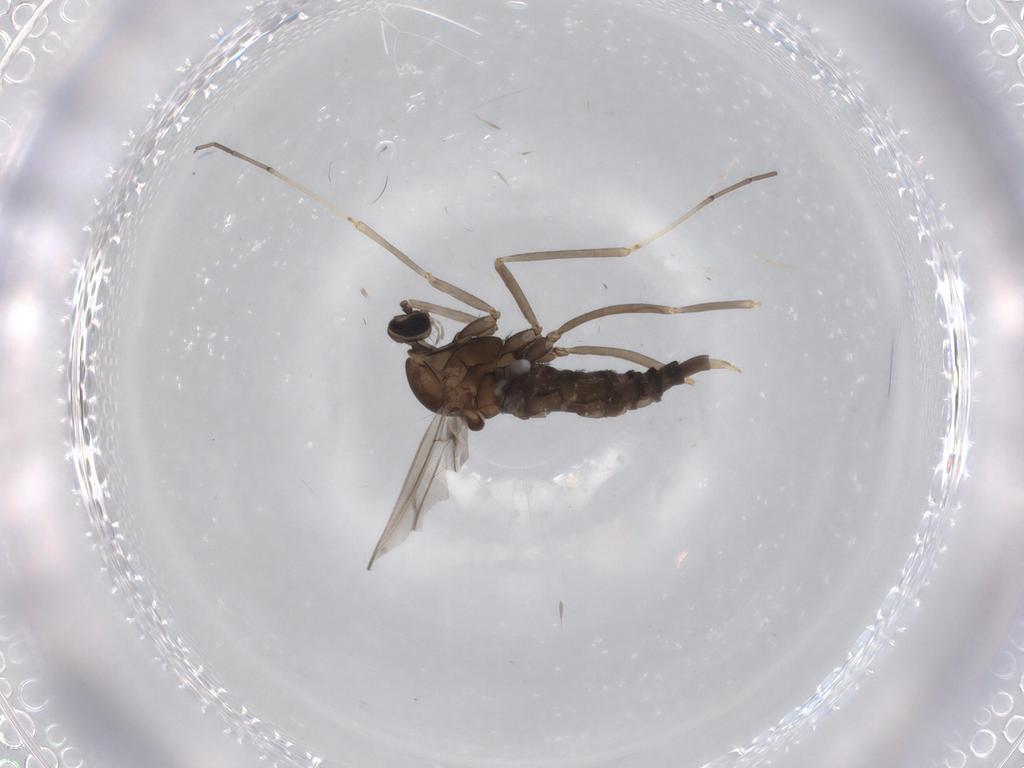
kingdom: Animalia
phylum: Arthropoda
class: Insecta
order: Diptera
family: Cecidomyiidae
